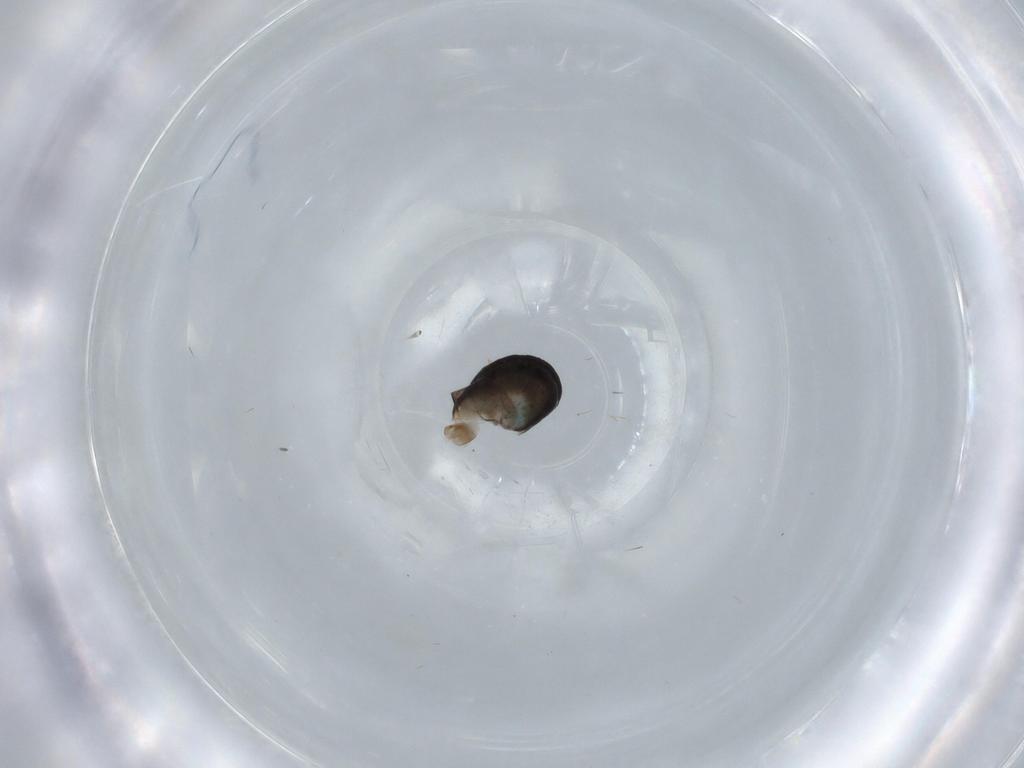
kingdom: Animalia
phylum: Arthropoda
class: Insecta
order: Hymenoptera
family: Dryinidae
